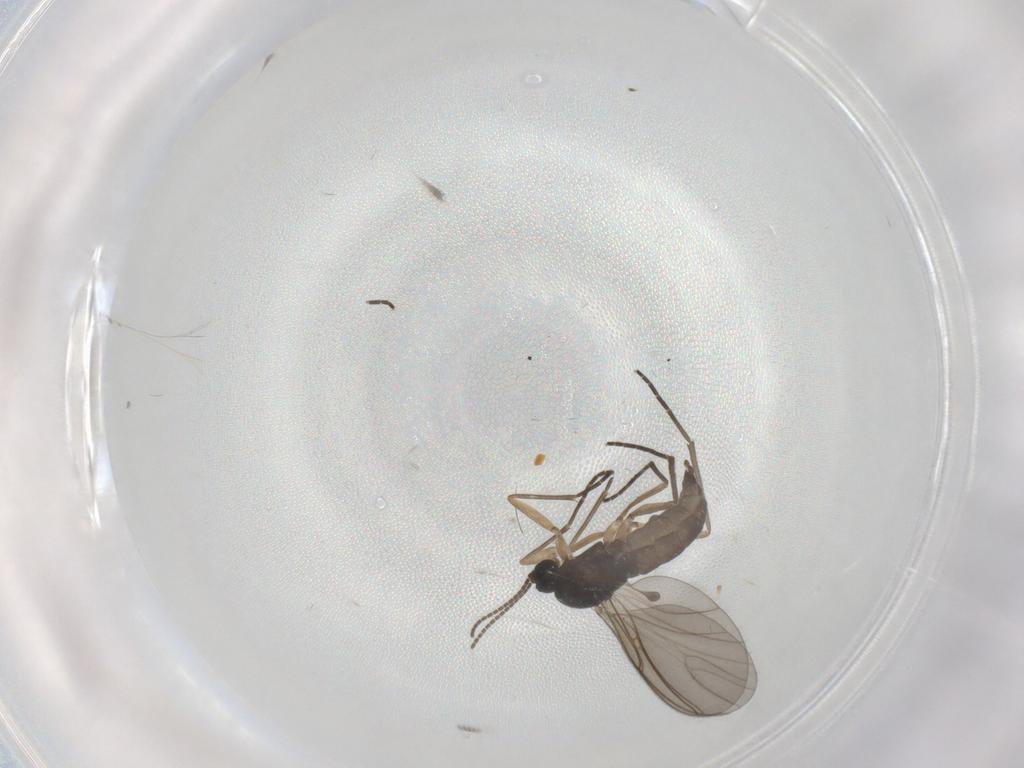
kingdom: Animalia
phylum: Arthropoda
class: Insecta
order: Diptera
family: Sciaridae
